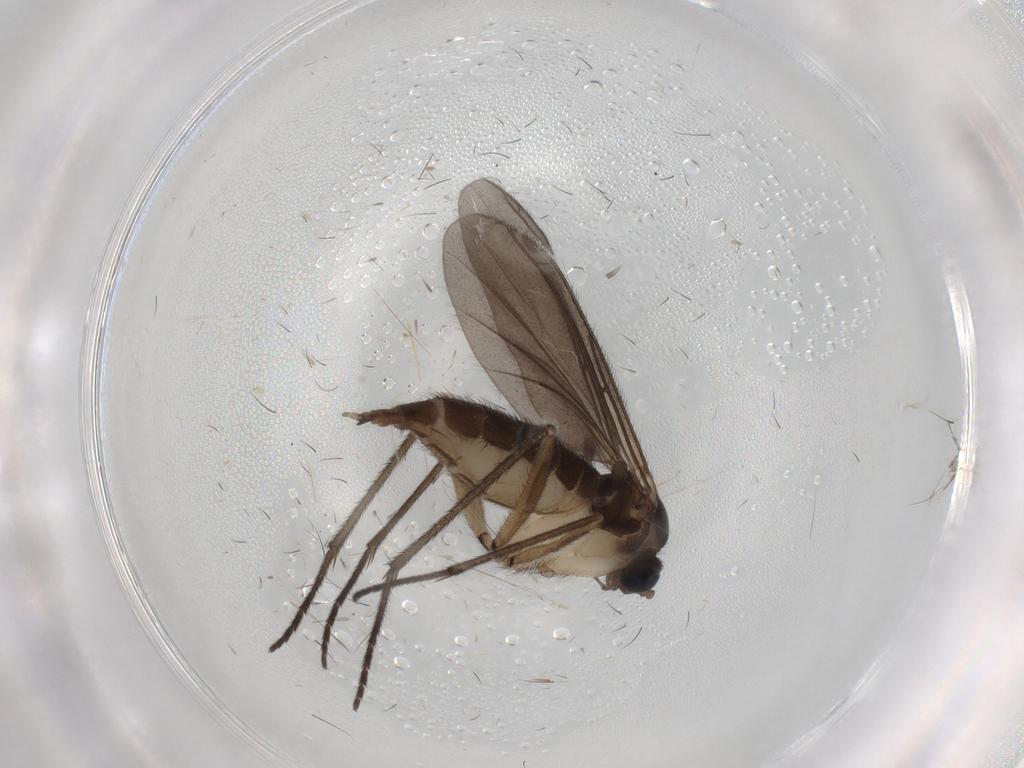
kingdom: Animalia
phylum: Arthropoda
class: Insecta
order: Diptera
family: Sciaridae
